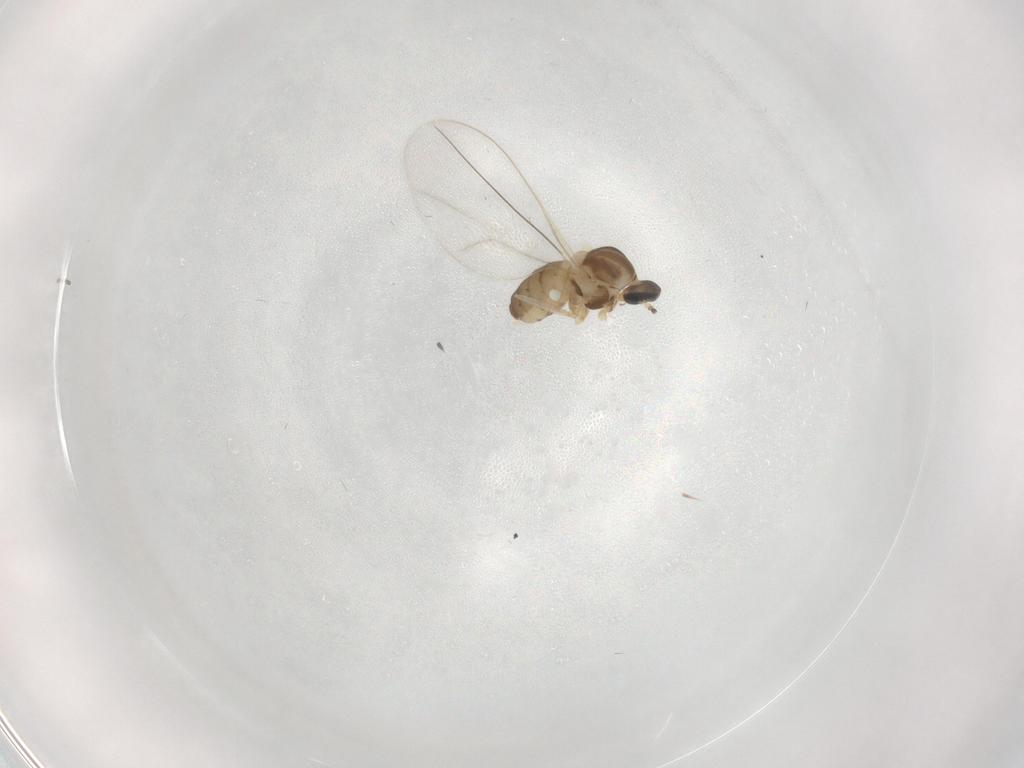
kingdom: Animalia
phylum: Arthropoda
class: Insecta
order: Diptera
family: Cecidomyiidae
